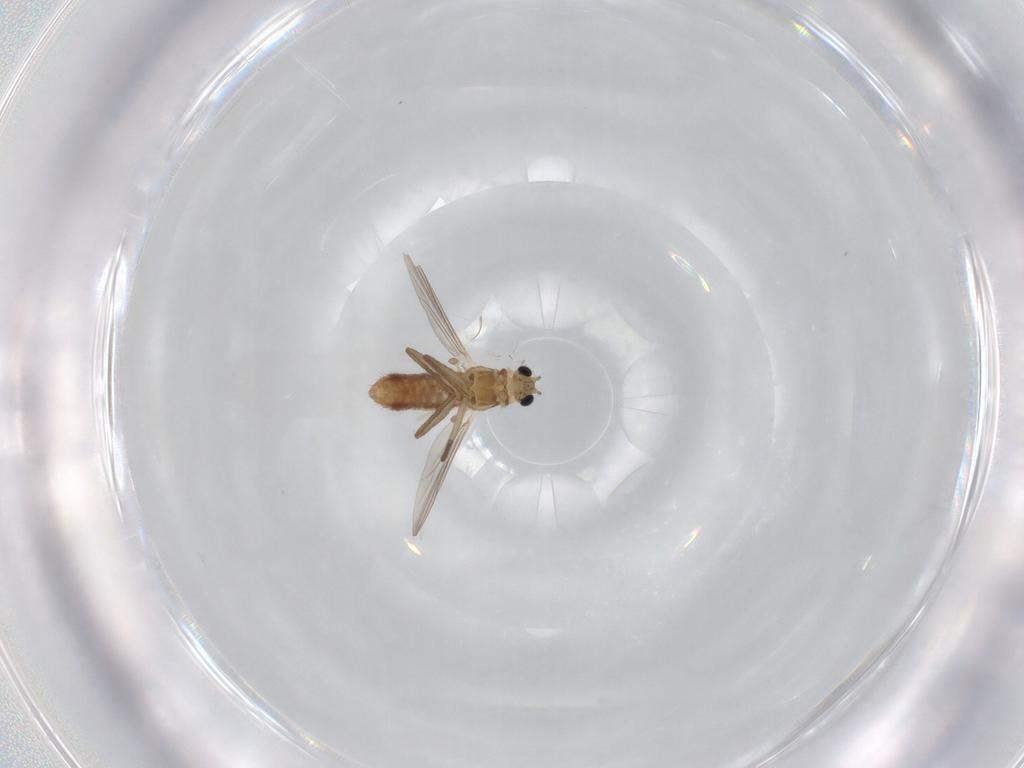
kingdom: Animalia
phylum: Arthropoda
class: Insecta
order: Diptera
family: Chironomidae
